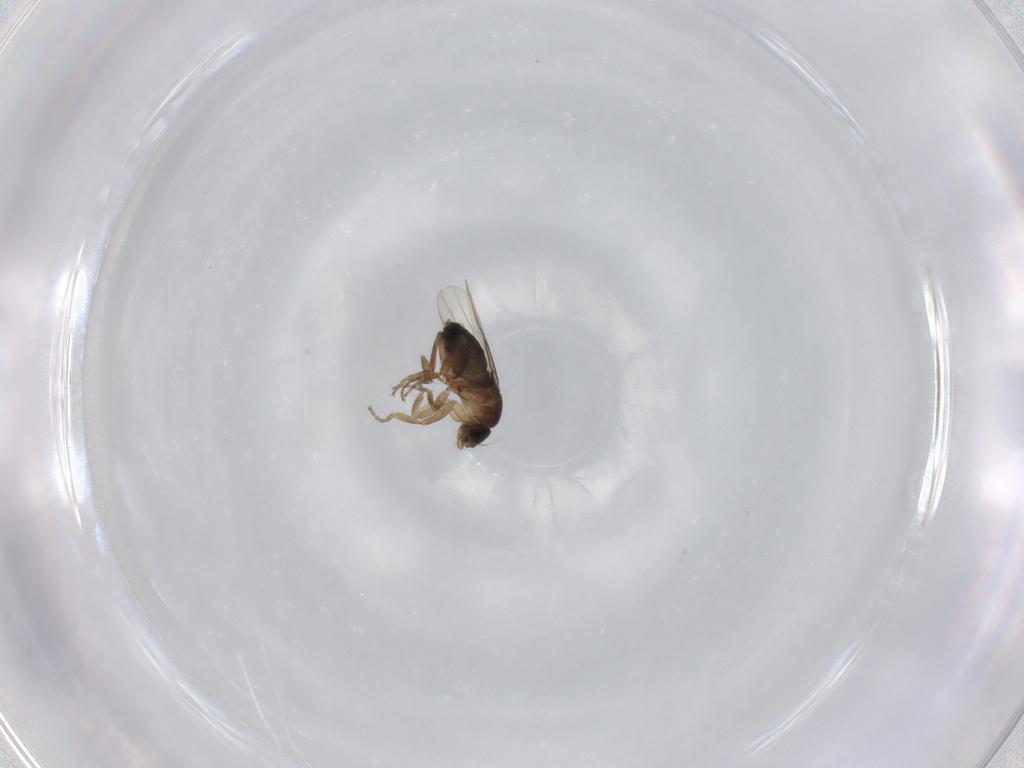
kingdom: Animalia
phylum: Arthropoda
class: Insecta
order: Diptera
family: Phoridae
